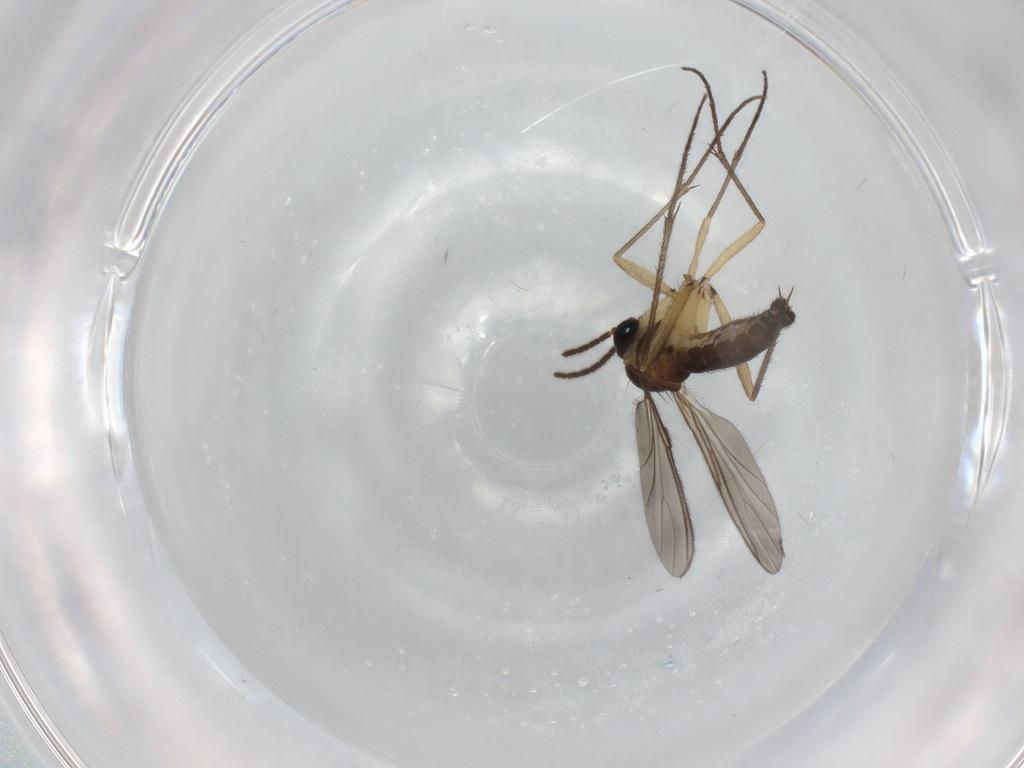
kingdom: Animalia
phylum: Arthropoda
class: Insecta
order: Diptera
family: Sciaridae
